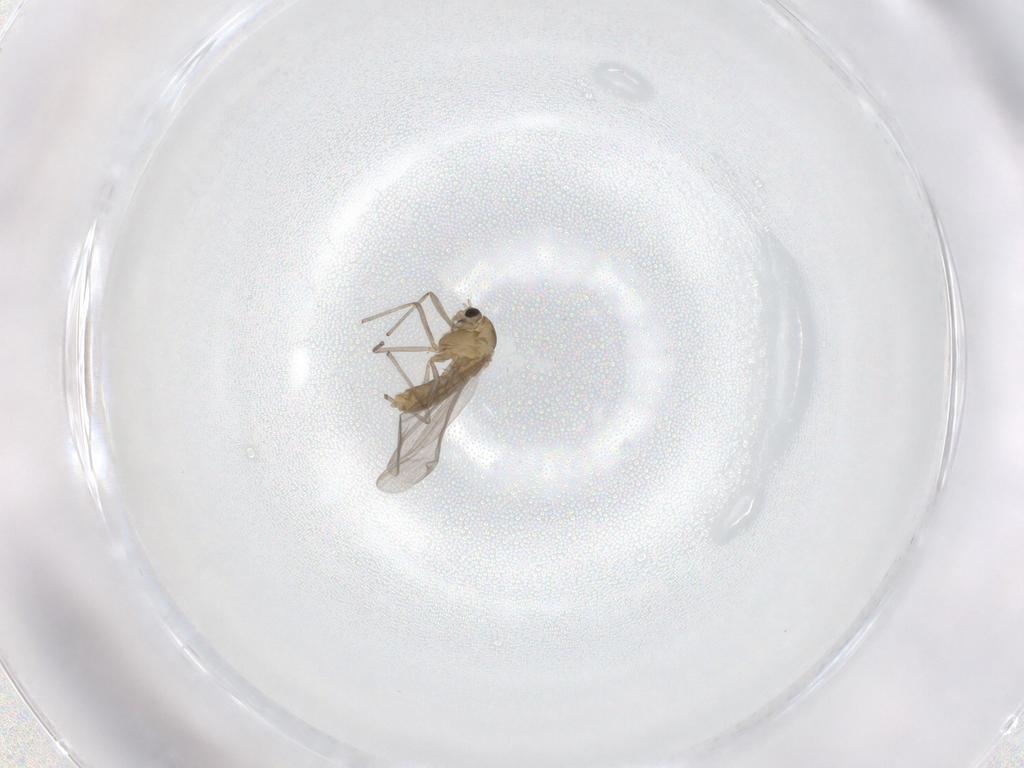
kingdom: Animalia
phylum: Arthropoda
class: Insecta
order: Diptera
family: Chironomidae
